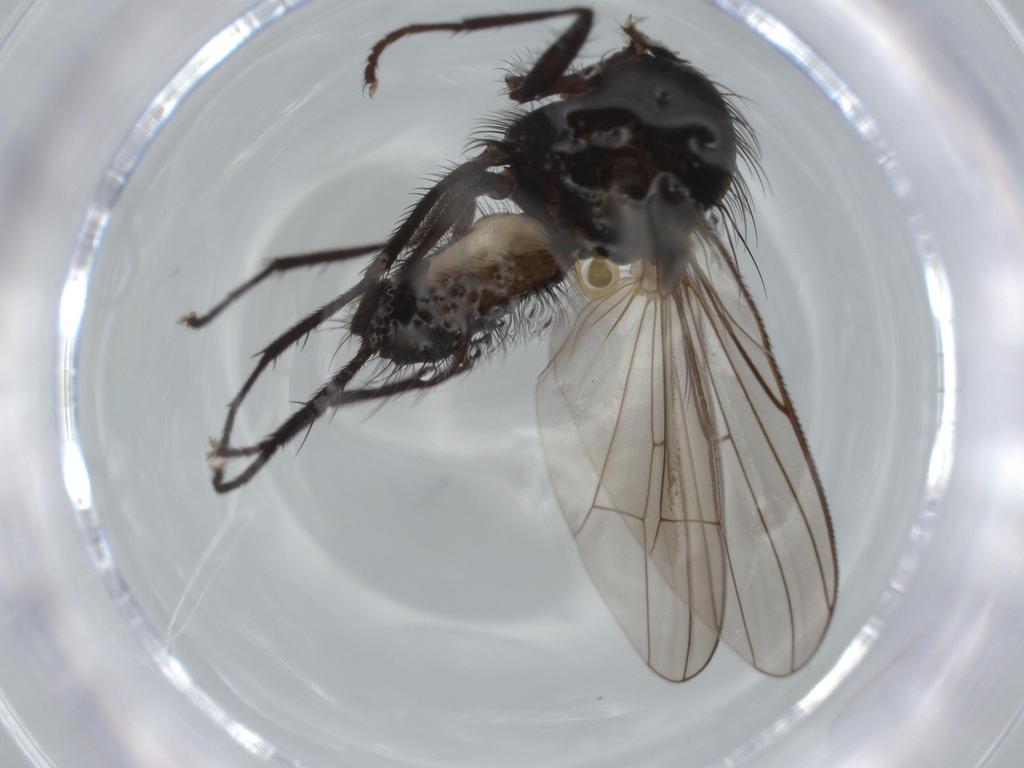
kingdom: Animalia
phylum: Arthropoda
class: Insecta
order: Diptera
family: Anthomyiidae
